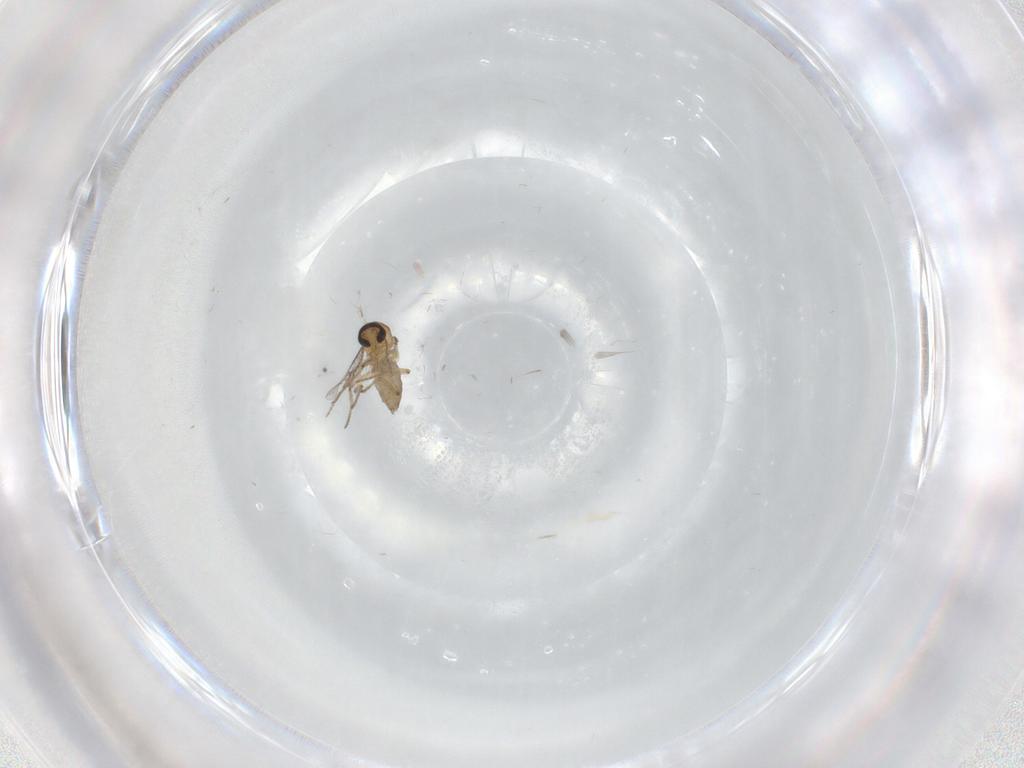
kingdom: Animalia
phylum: Arthropoda
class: Insecta
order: Diptera
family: Ceratopogonidae
